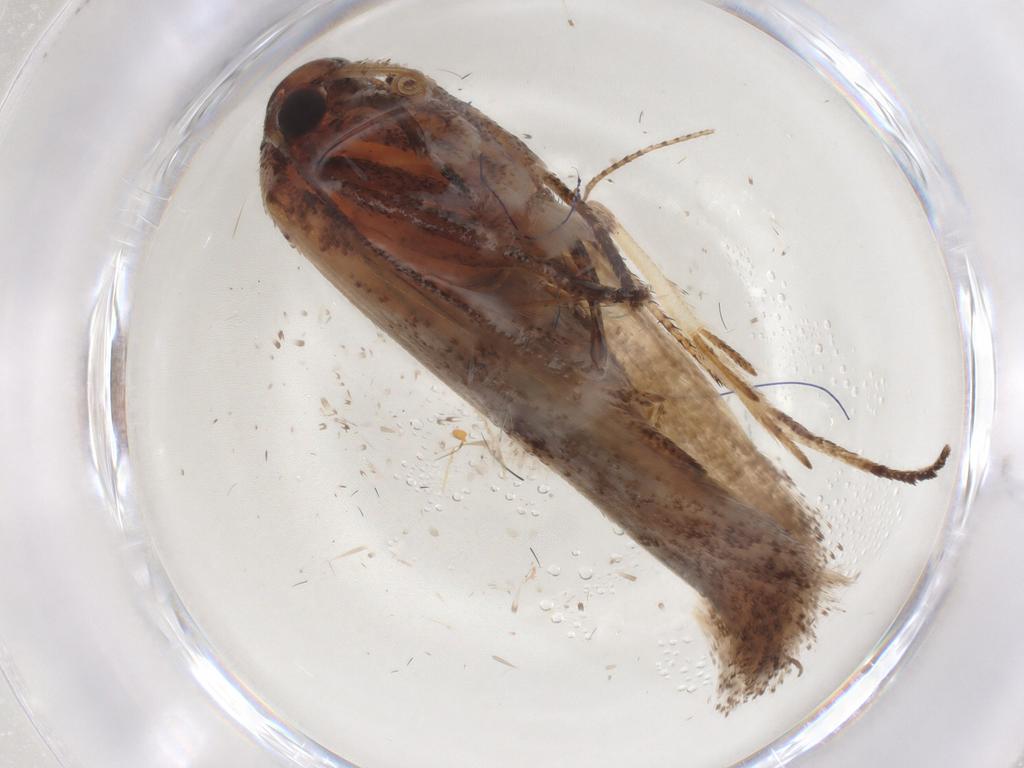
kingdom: Animalia
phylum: Arthropoda
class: Insecta
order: Lepidoptera
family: Cosmopterigidae
